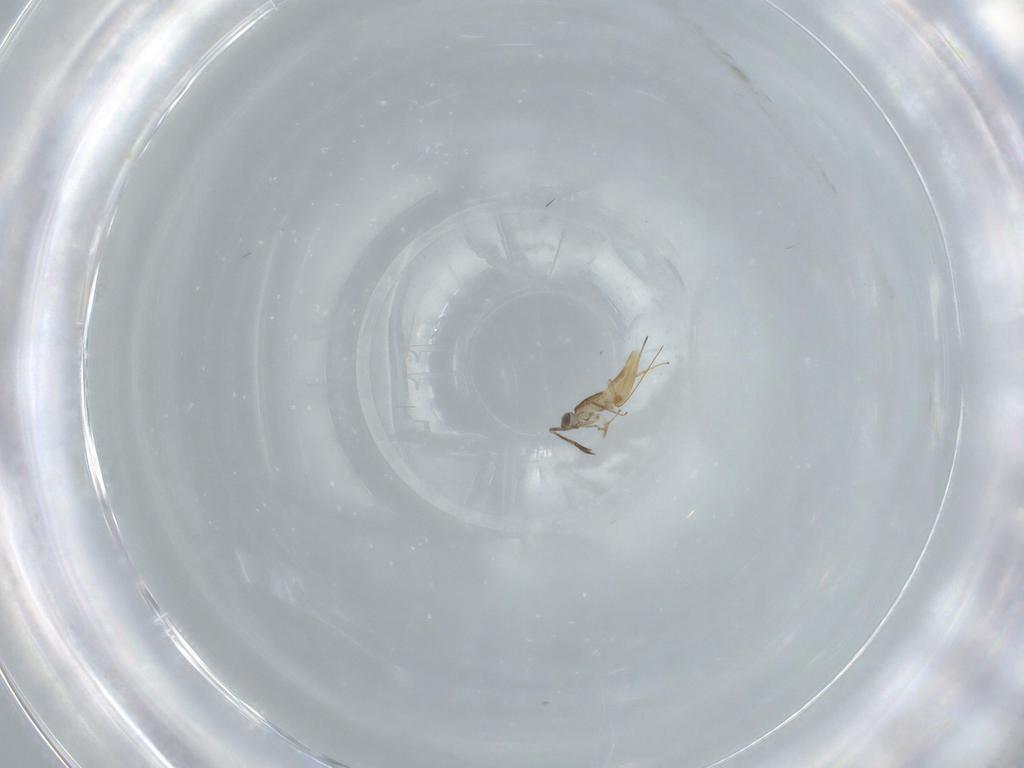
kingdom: Animalia
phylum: Arthropoda
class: Insecta
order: Hymenoptera
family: Mymaridae
